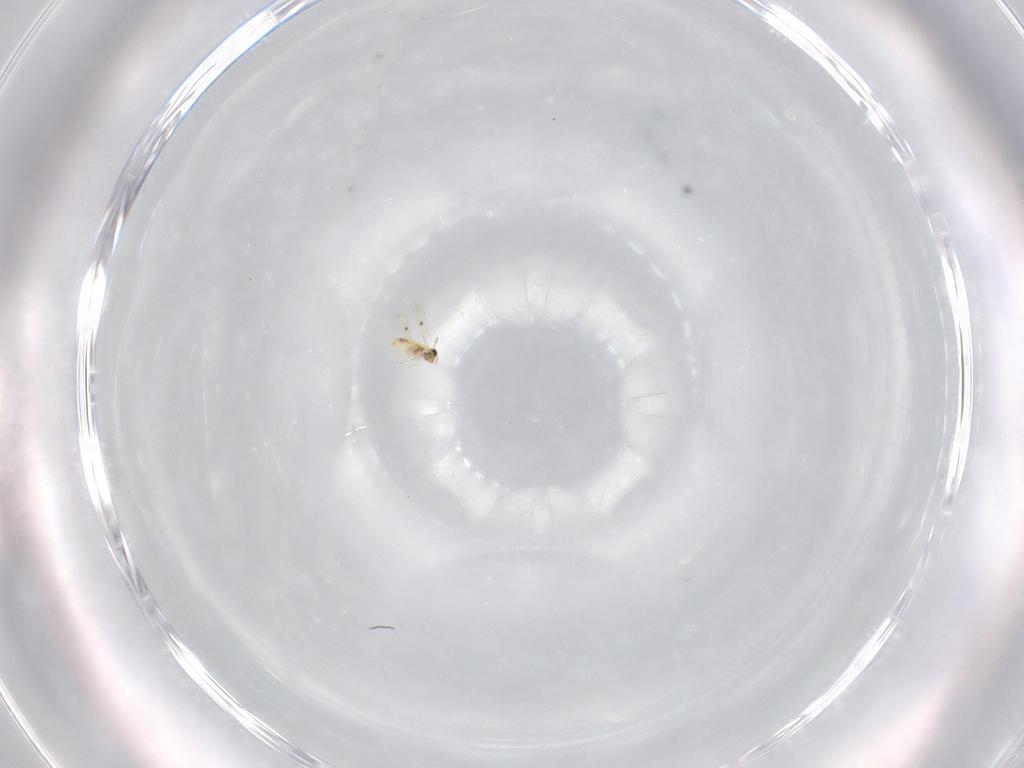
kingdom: Animalia
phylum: Arthropoda
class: Insecta
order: Hymenoptera
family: Trichogrammatidae
